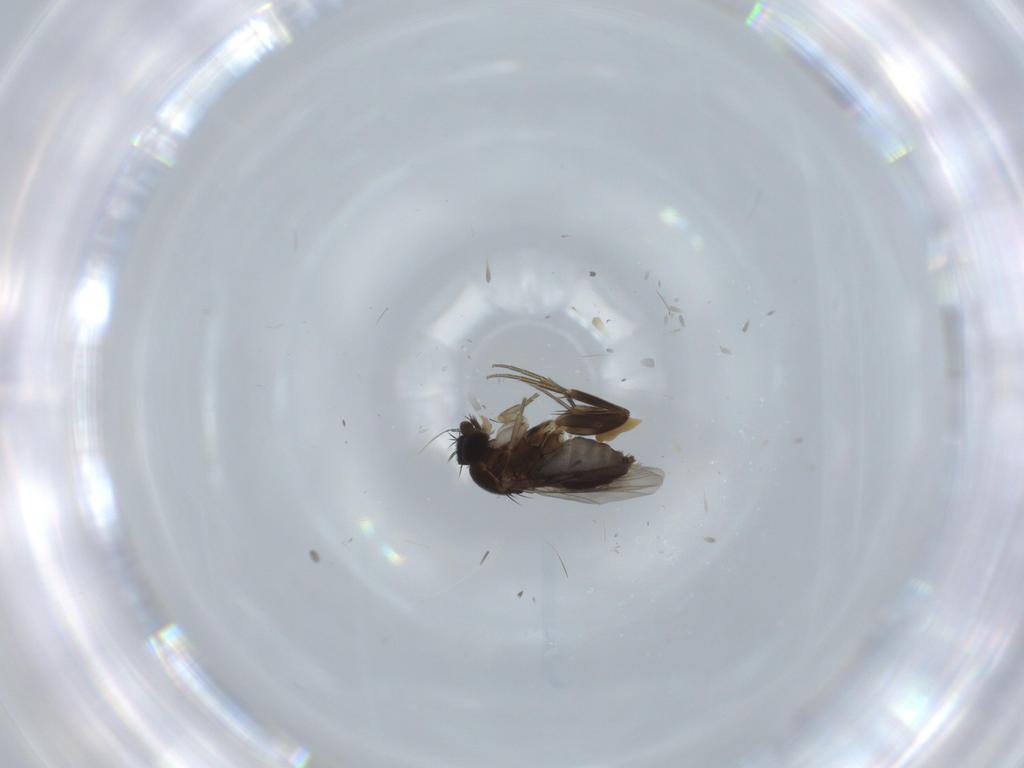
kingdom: Animalia
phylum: Arthropoda
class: Insecta
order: Diptera
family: Phoridae
